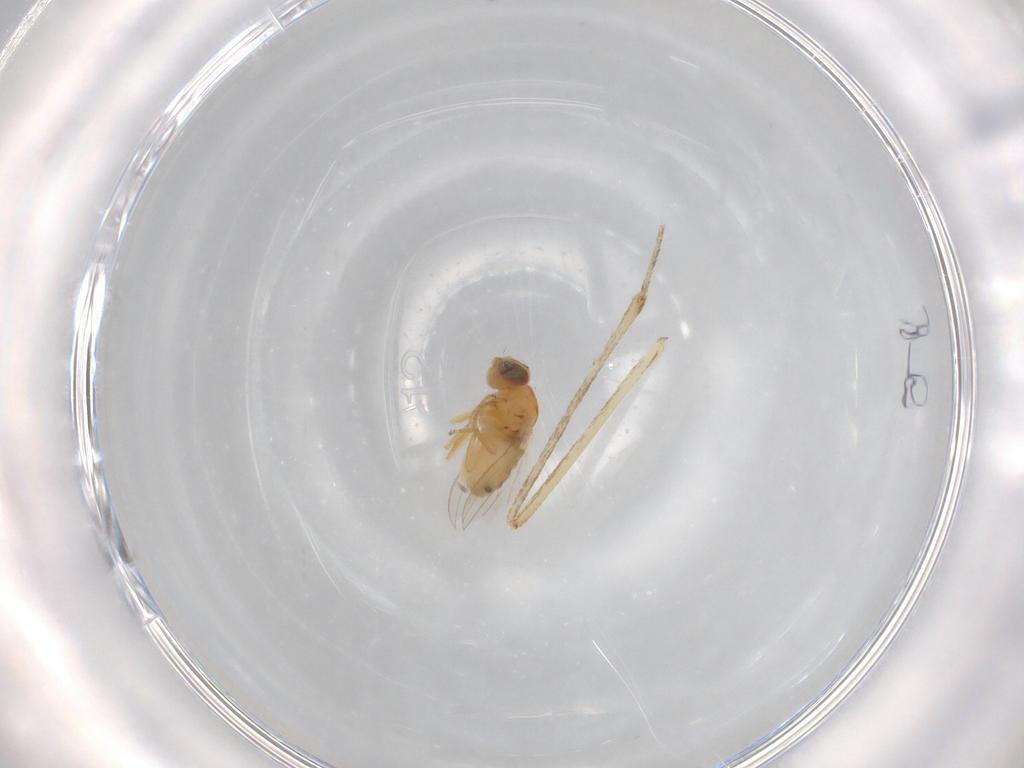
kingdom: Animalia
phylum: Arthropoda
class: Insecta
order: Diptera
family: Chyromyidae
